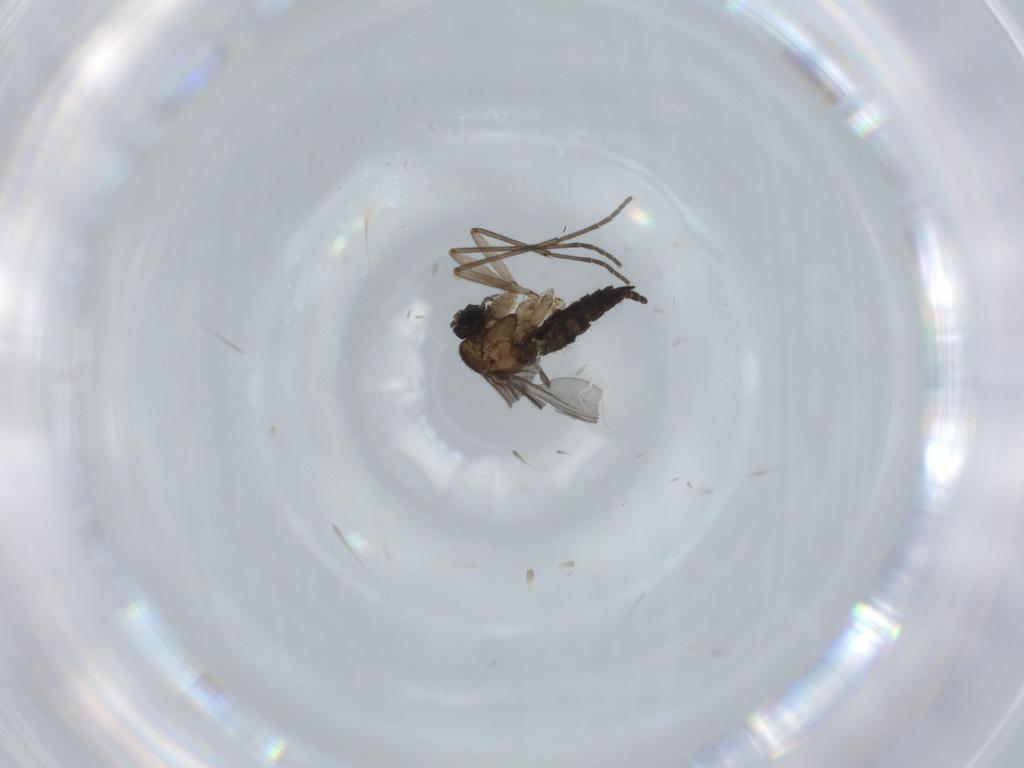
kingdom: Animalia
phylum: Arthropoda
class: Insecta
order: Diptera
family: Sciaridae
